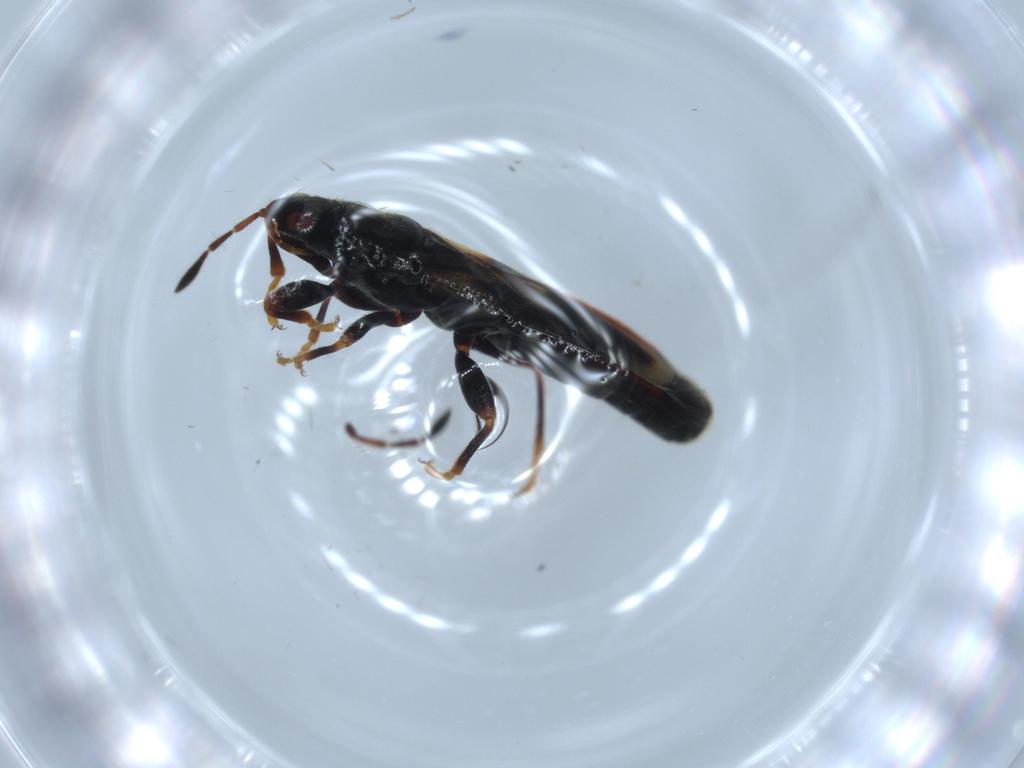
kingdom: Animalia
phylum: Arthropoda
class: Insecta
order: Hemiptera
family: Blissidae
